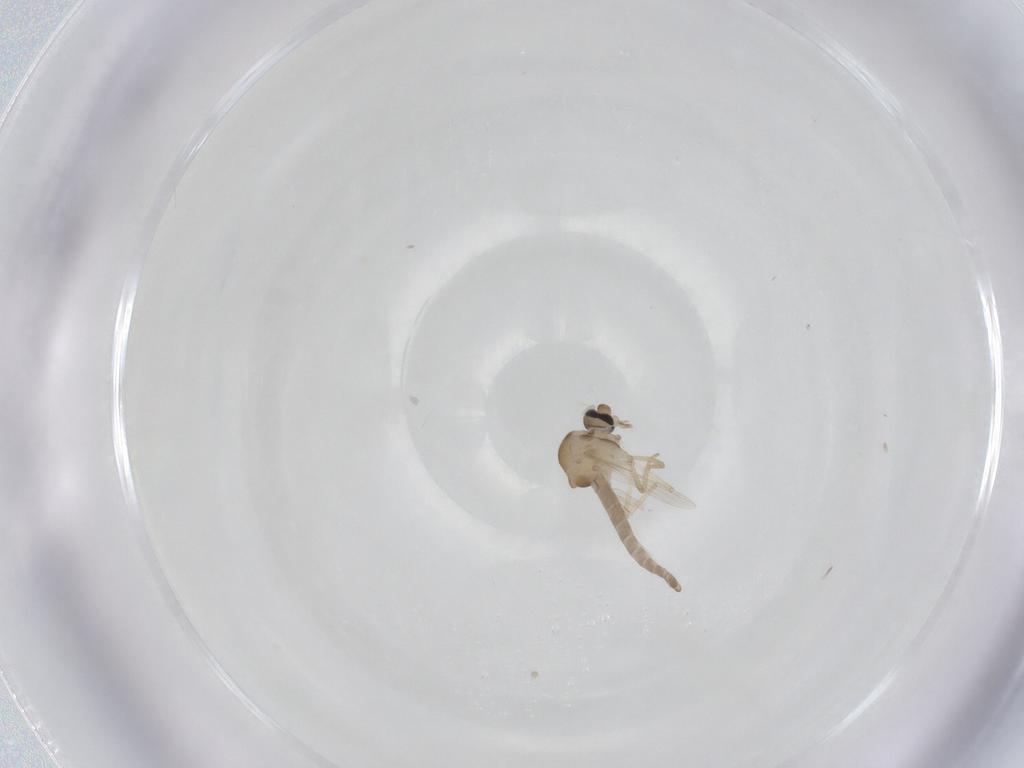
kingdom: Animalia
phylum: Arthropoda
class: Insecta
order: Diptera
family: Ceratopogonidae
